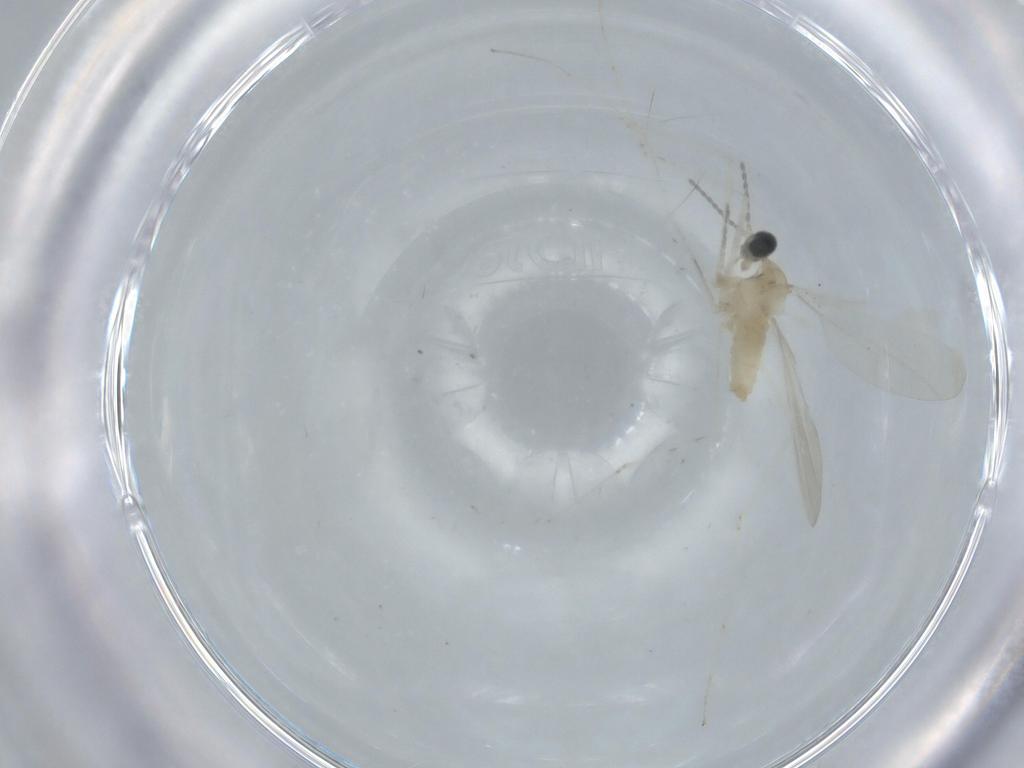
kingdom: Animalia
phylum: Arthropoda
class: Insecta
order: Diptera
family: Cecidomyiidae
